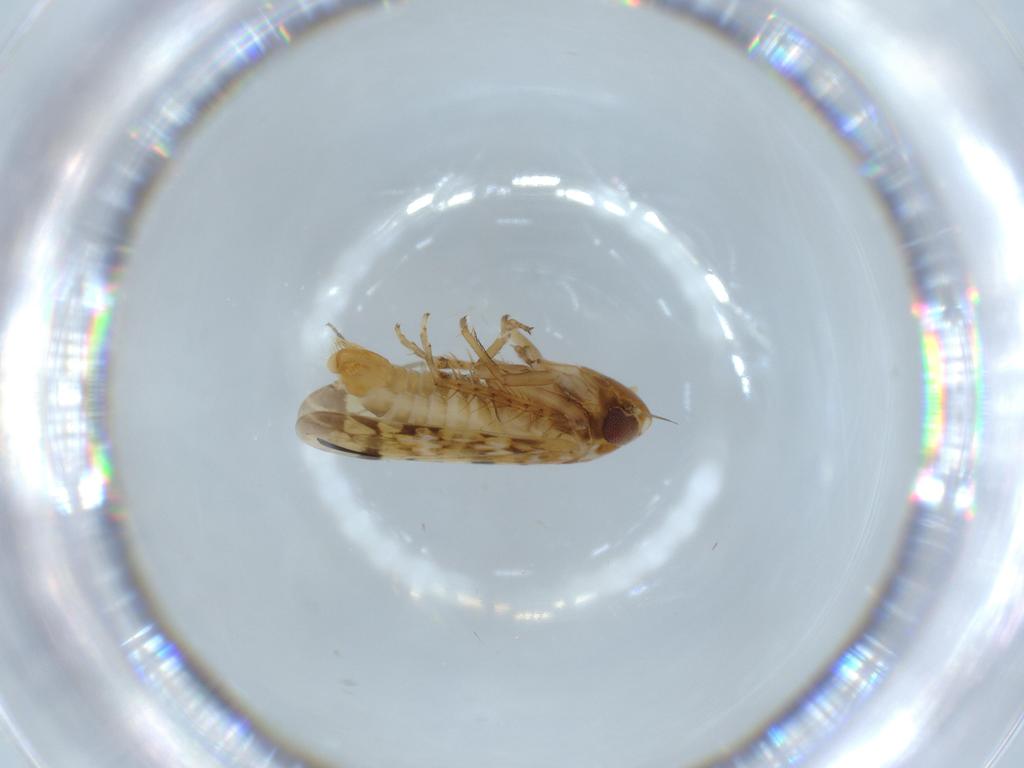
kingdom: Animalia
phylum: Arthropoda
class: Insecta
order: Hemiptera
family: Cicadellidae
